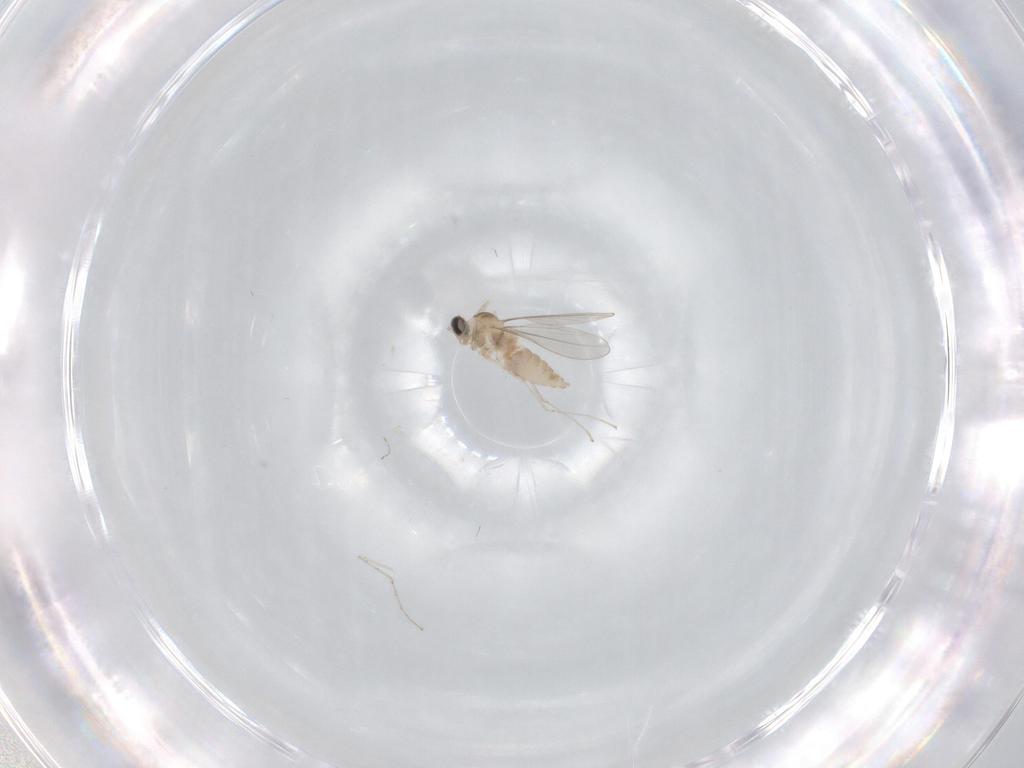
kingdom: Animalia
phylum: Arthropoda
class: Insecta
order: Diptera
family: Cecidomyiidae
